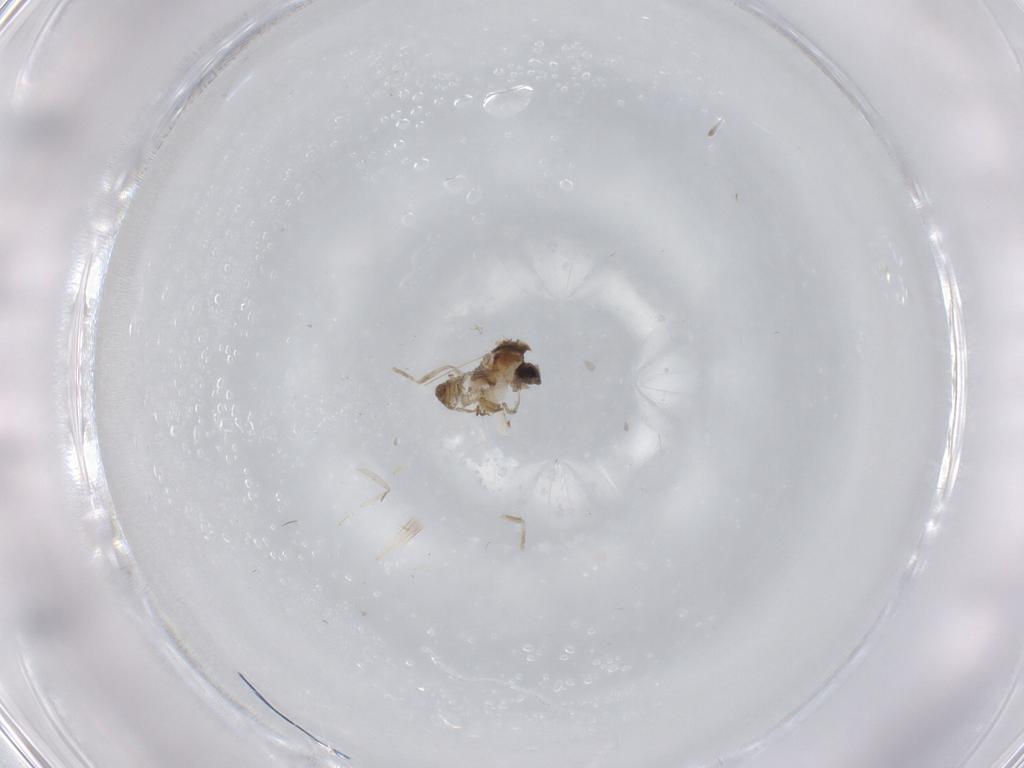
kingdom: Animalia
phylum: Arthropoda
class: Insecta
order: Diptera
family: Cecidomyiidae
